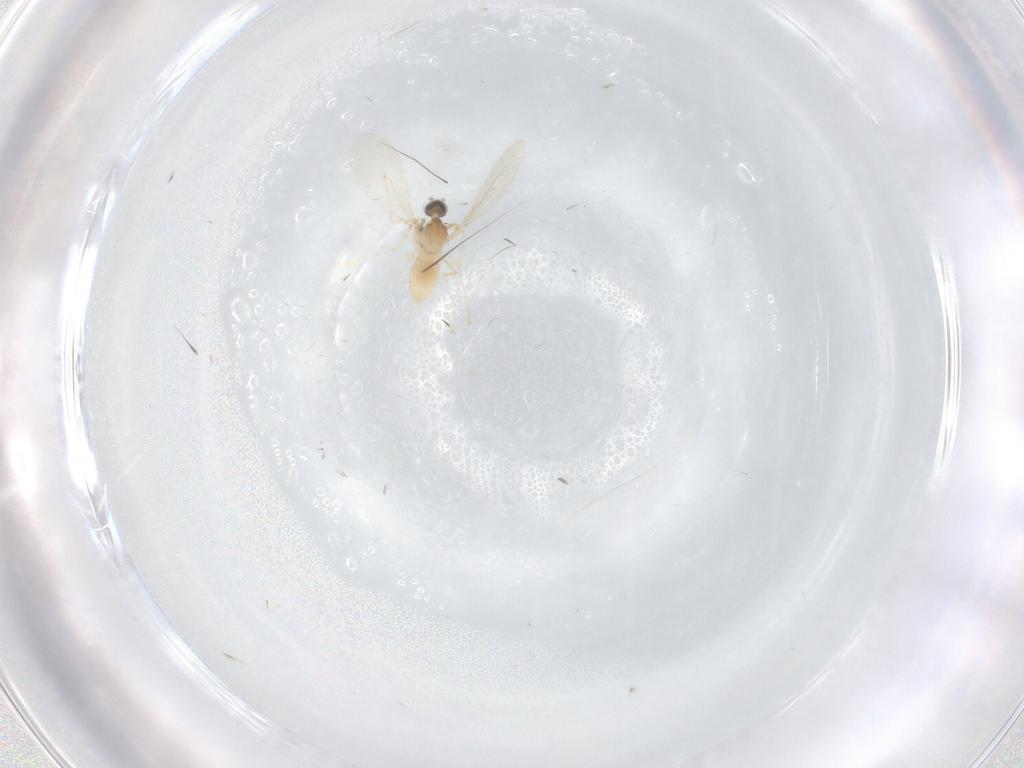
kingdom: Animalia
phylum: Arthropoda
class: Insecta
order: Diptera
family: Cecidomyiidae
